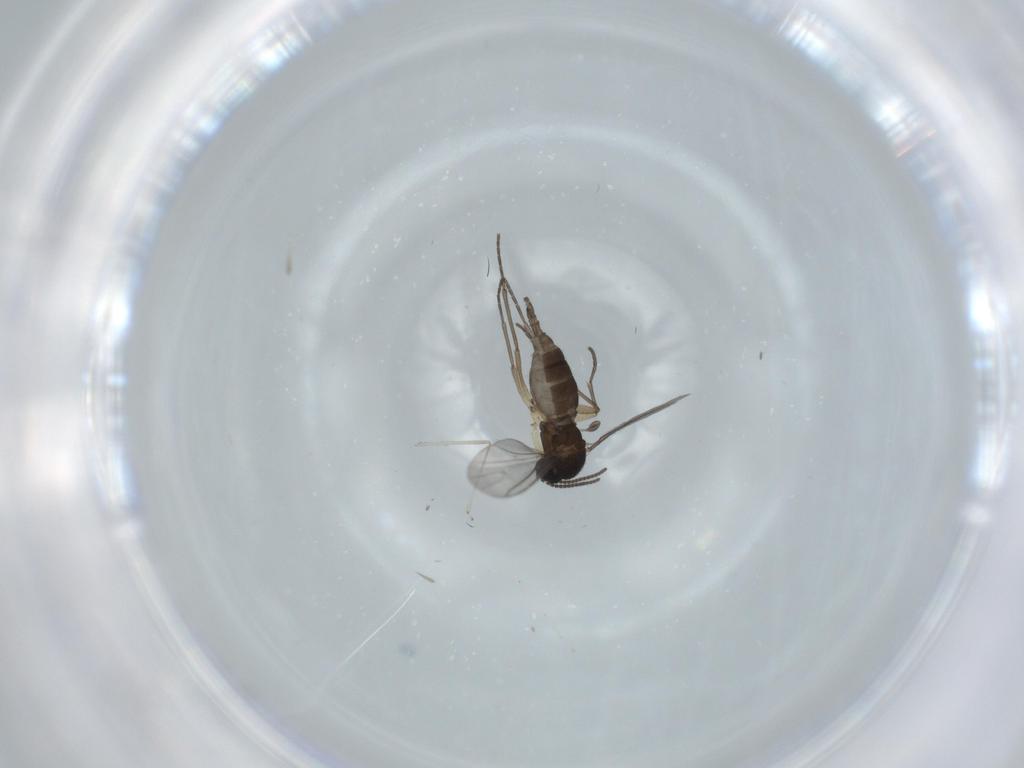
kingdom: Animalia
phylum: Arthropoda
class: Insecta
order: Diptera
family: Sciaridae
